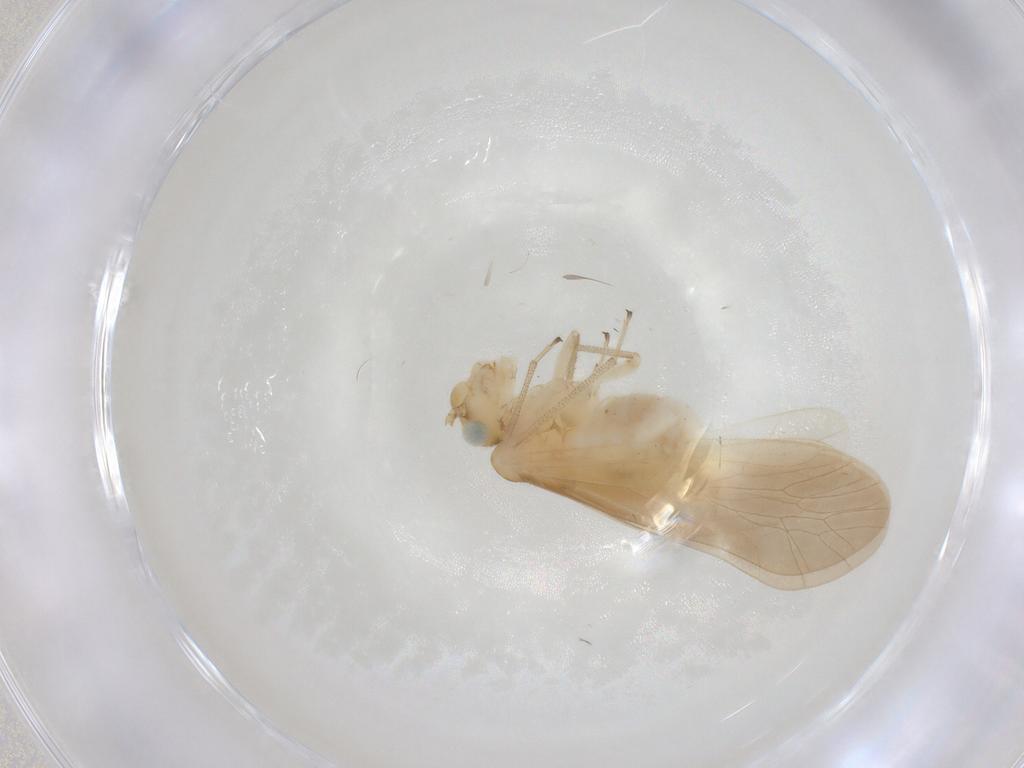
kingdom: Animalia
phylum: Arthropoda
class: Insecta
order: Psocodea
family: Caeciliusidae
